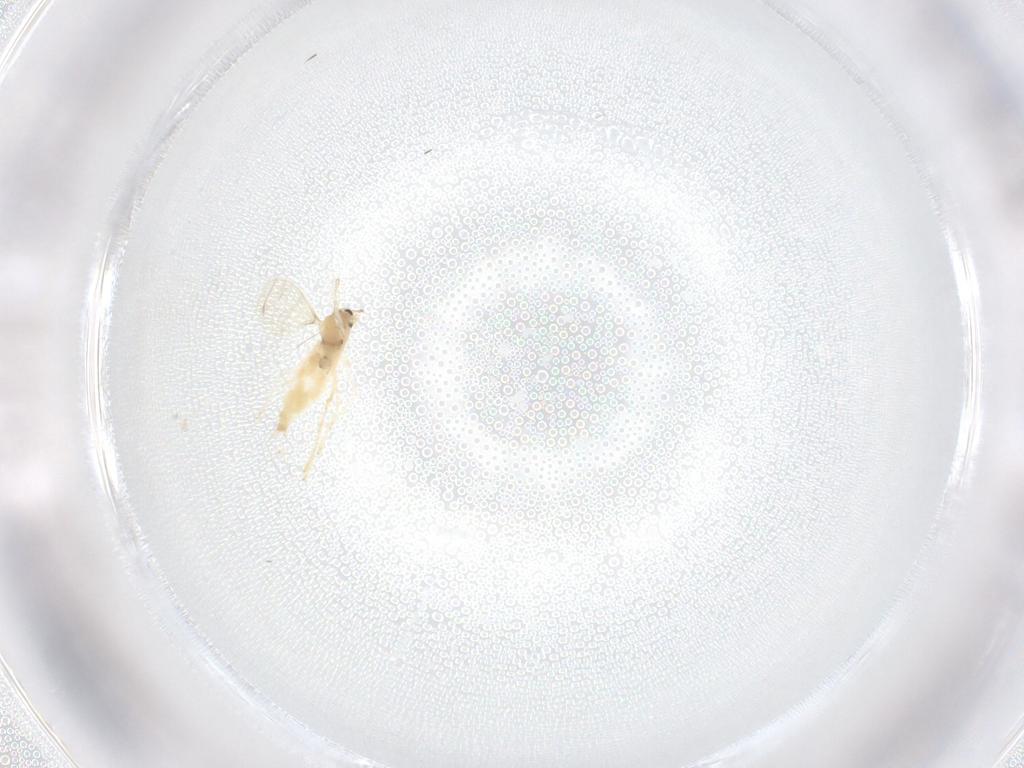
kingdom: Animalia
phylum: Arthropoda
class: Insecta
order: Diptera
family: Cecidomyiidae
